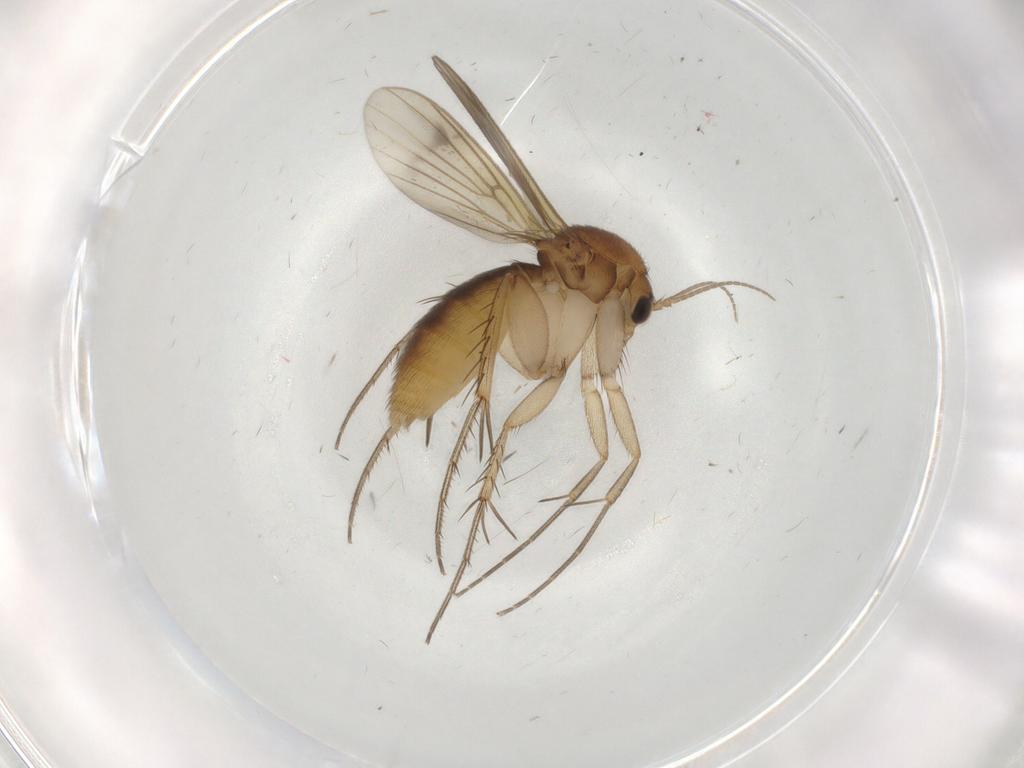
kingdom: Animalia
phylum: Arthropoda
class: Insecta
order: Diptera
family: Mycetophilidae
